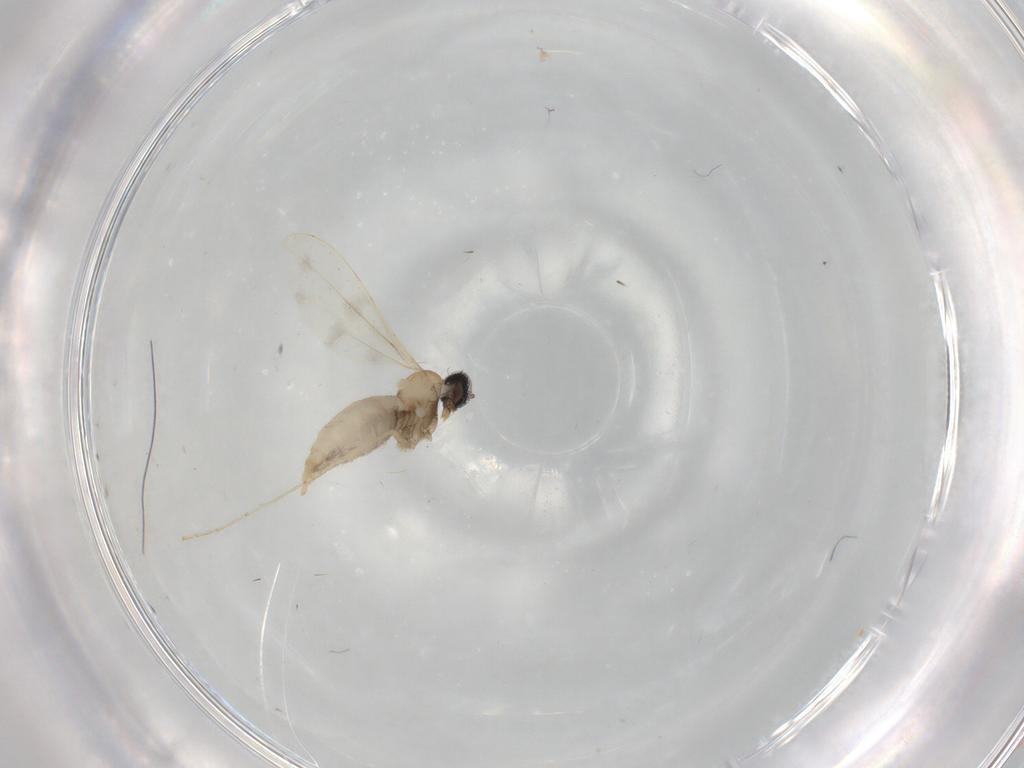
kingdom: Animalia
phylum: Arthropoda
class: Insecta
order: Diptera
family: Cecidomyiidae
